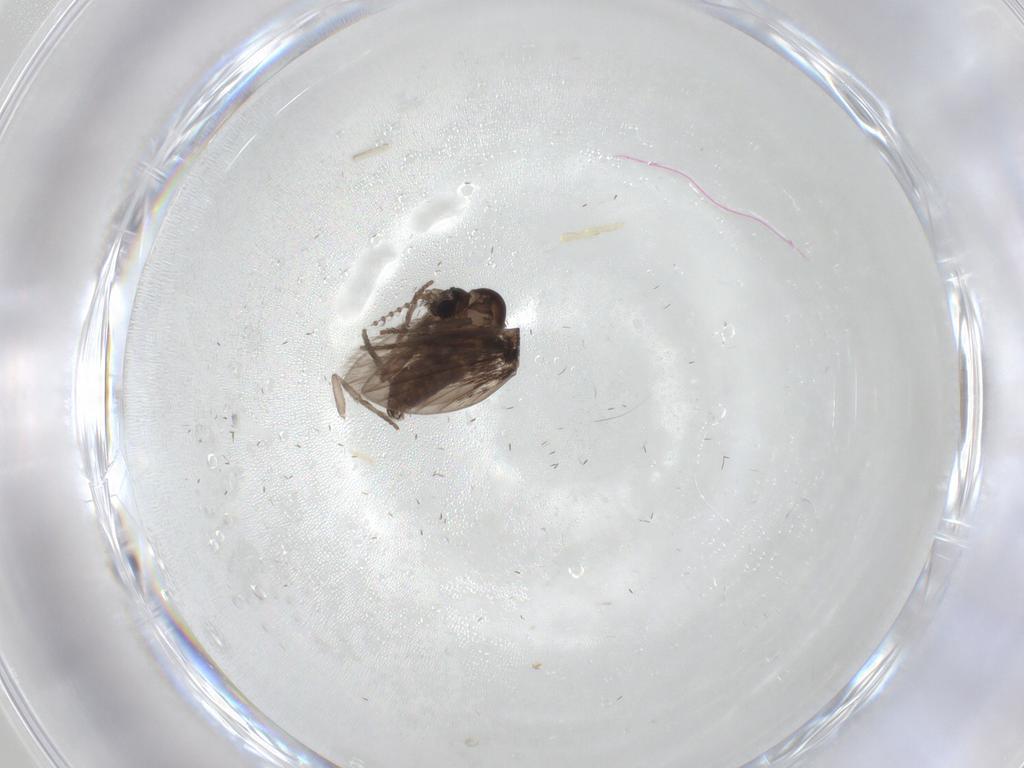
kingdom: Animalia
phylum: Arthropoda
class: Insecta
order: Diptera
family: Psychodidae
